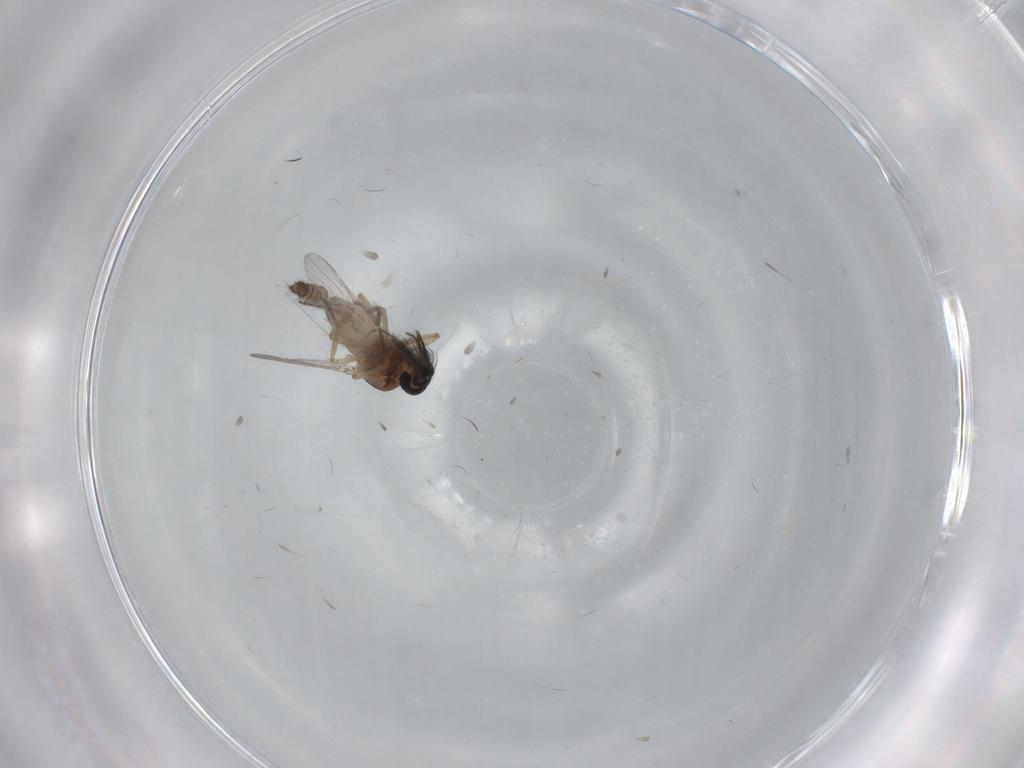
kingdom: Animalia
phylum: Arthropoda
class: Insecta
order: Diptera
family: Ceratopogonidae
